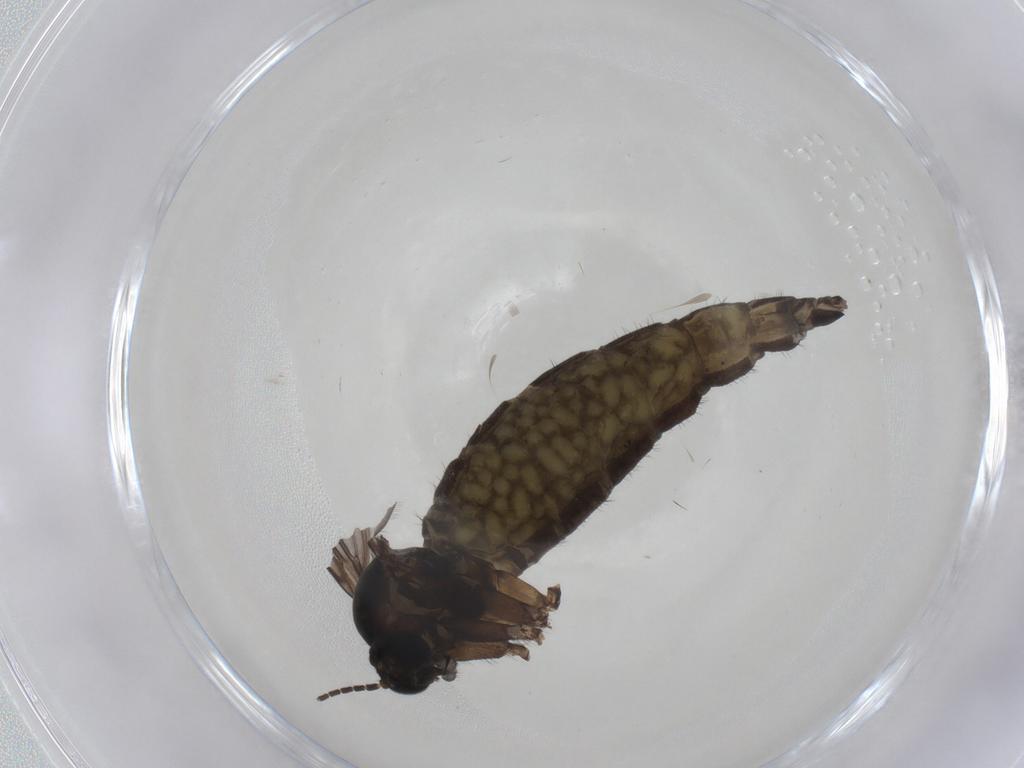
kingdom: Animalia
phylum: Arthropoda
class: Insecta
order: Diptera
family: Sciaridae
